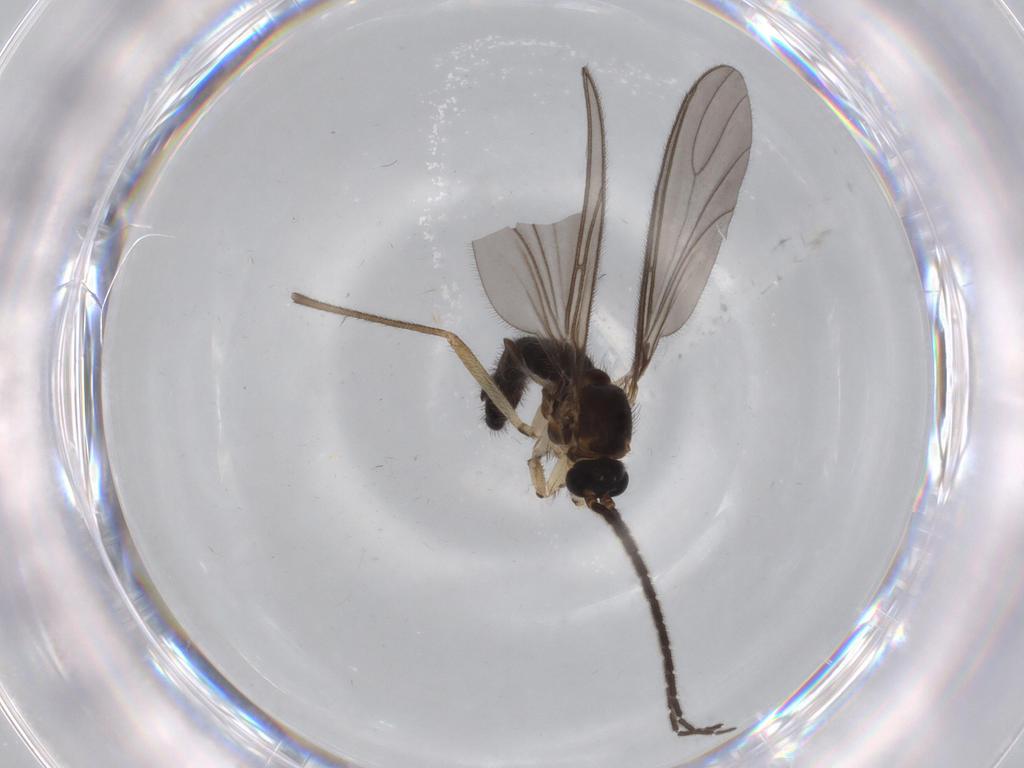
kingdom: Animalia
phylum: Arthropoda
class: Insecta
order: Diptera
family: Sciaridae
